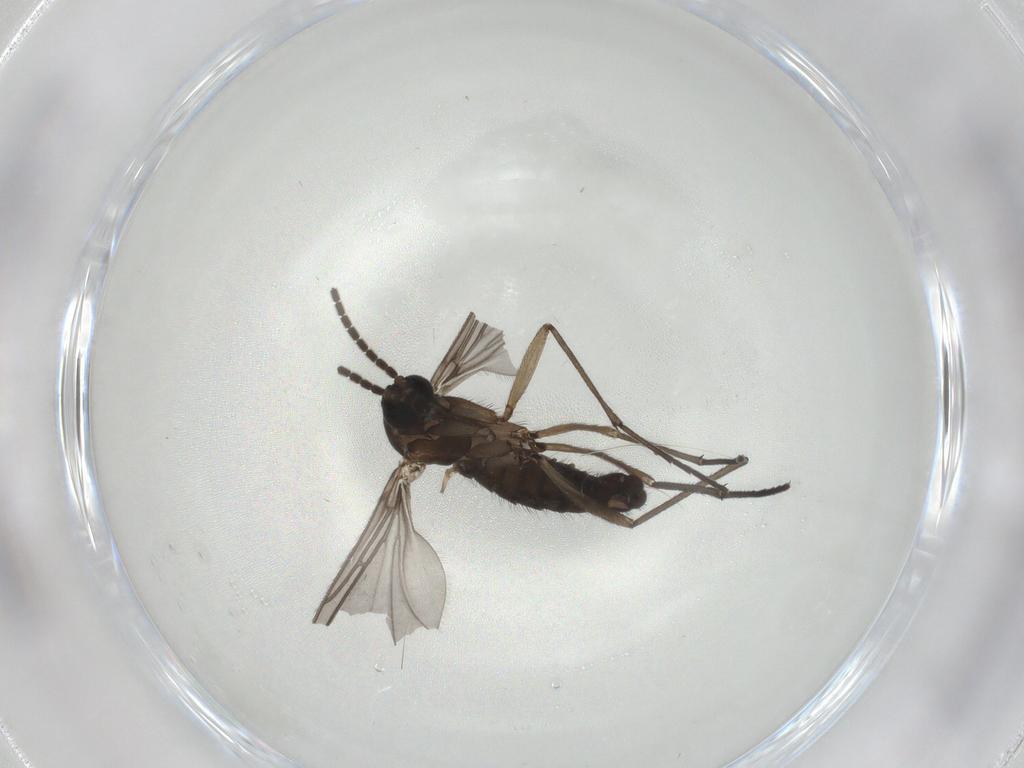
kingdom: Animalia
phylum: Arthropoda
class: Insecta
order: Diptera
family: Sciaridae
